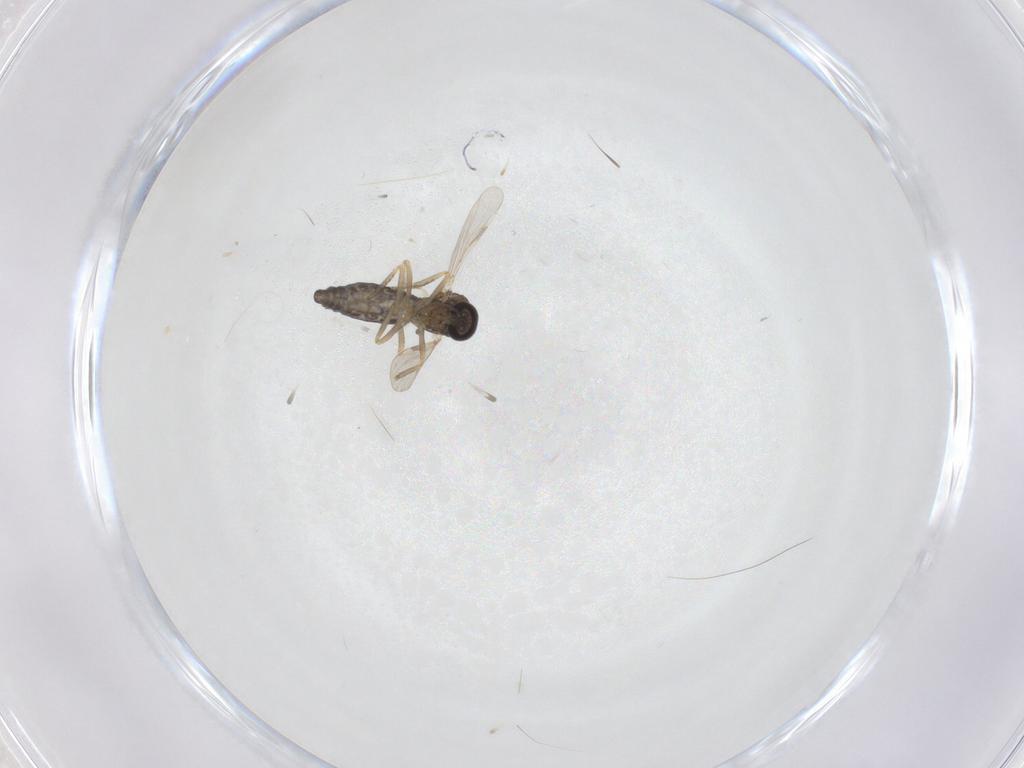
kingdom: Animalia
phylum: Arthropoda
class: Insecta
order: Diptera
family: Ceratopogonidae
